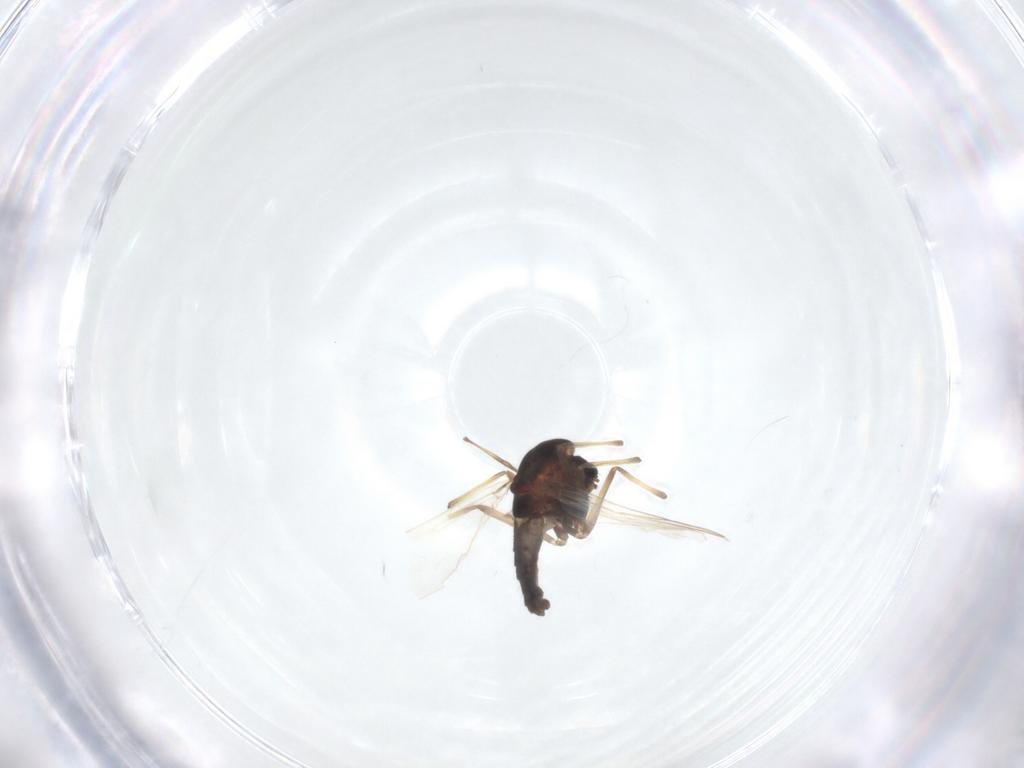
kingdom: Animalia
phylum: Arthropoda
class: Insecta
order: Diptera
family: Chironomidae
